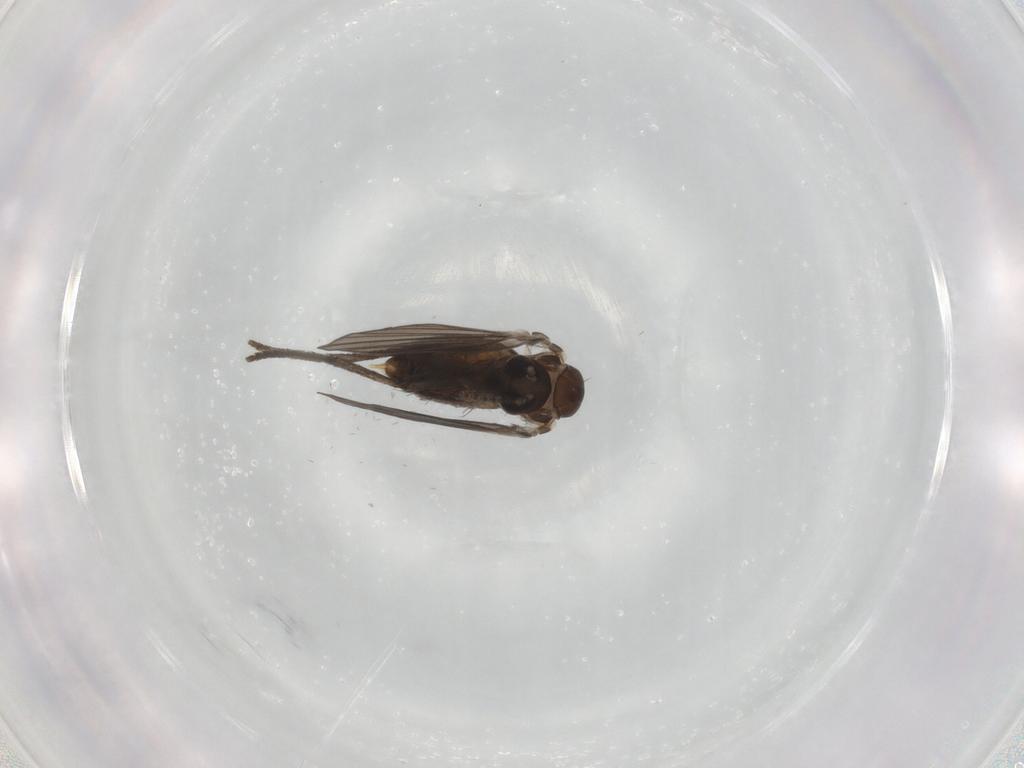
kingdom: Animalia
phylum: Arthropoda
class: Insecta
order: Diptera
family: Psychodidae
